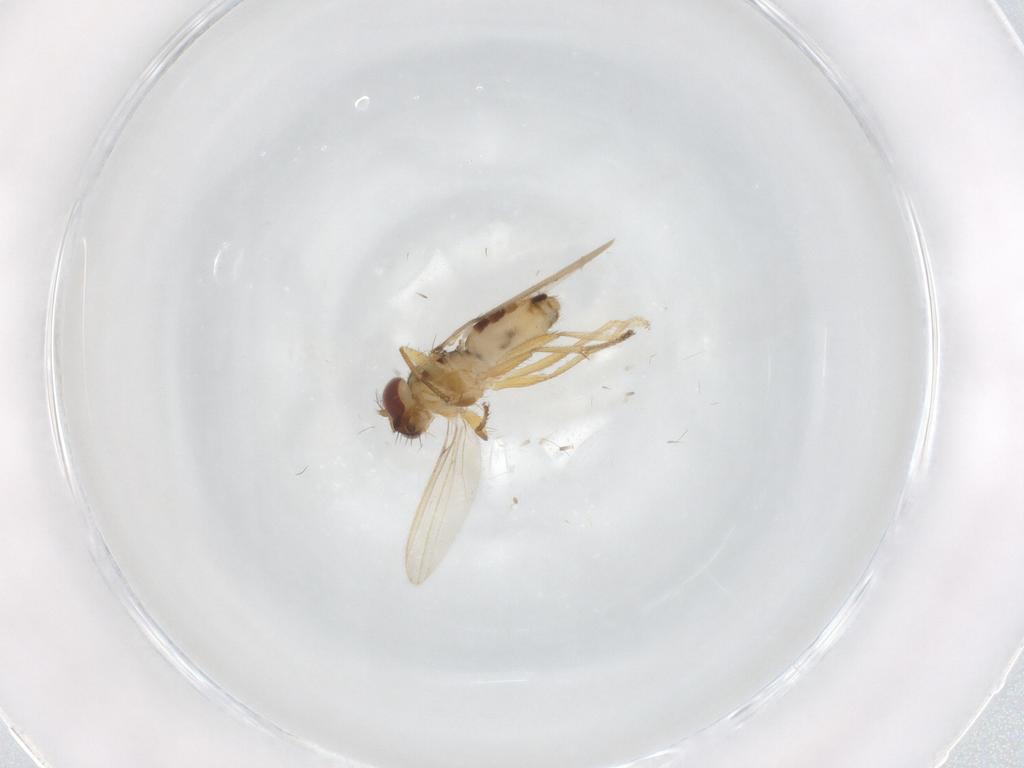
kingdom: Animalia
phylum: Arthropoda
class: Insecta
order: Diptera
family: Periscelididae
